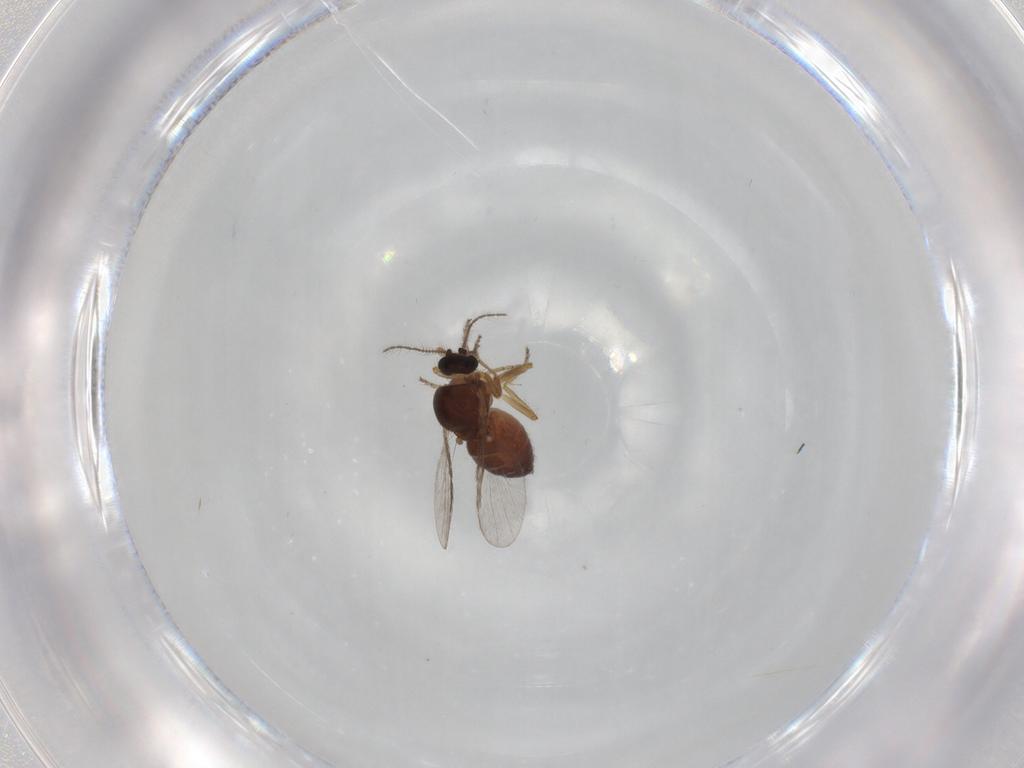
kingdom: Animalia
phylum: Arthropoda
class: Insecta
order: Diptera
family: Ceratopogonidae
